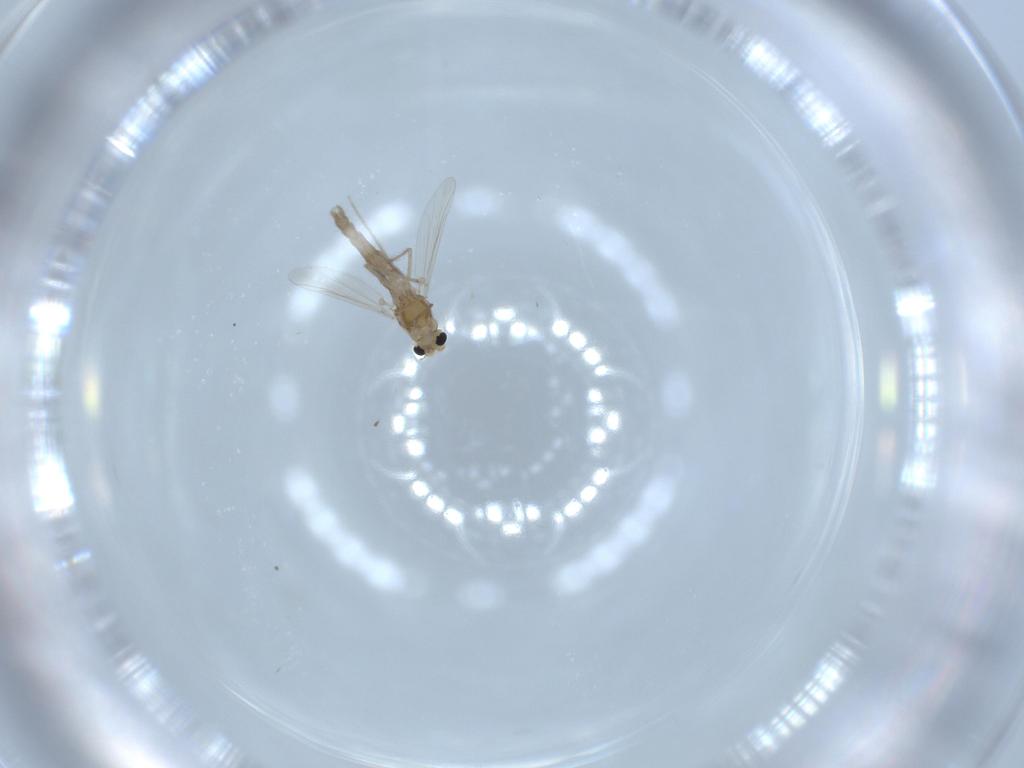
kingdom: Animalia
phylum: Arthropoda
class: Insecta
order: Diptera
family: Chironomidae
